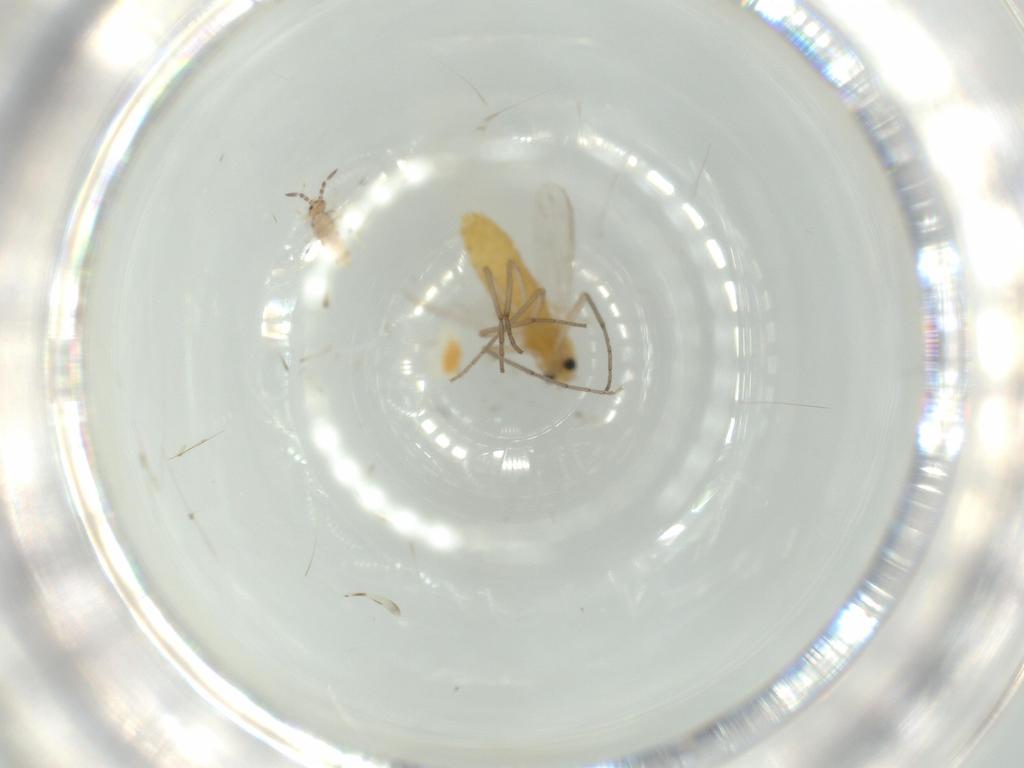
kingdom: Animalia
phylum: Arthropoda
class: Insecta
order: Diptera
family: Chironomidae
